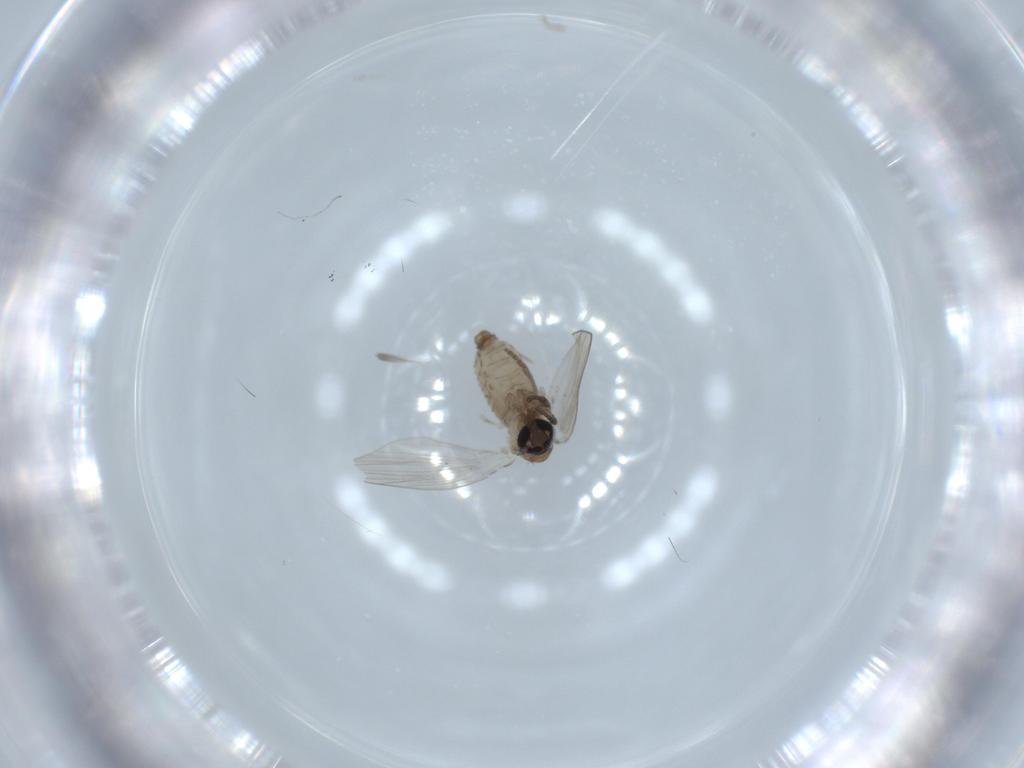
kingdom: Animalia
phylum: Arthropoda
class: Insecta
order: Diptera
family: Psychodidae
